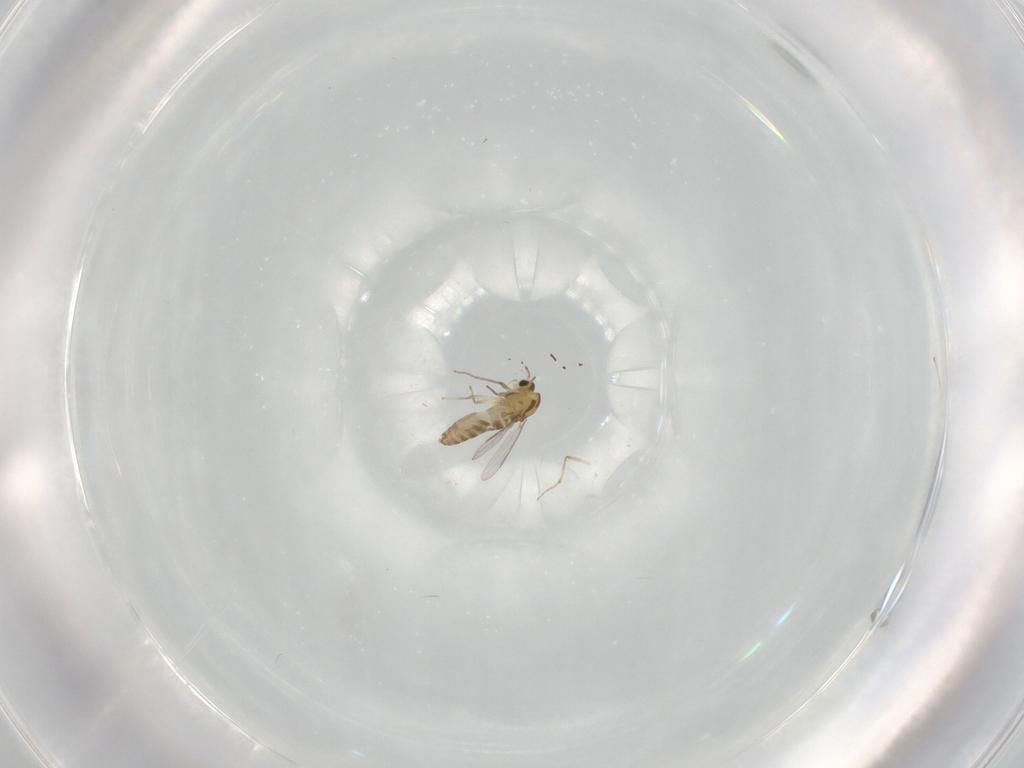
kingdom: Animalia
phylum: Arthropoda
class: Insecta
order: Diptera
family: Chironomidae
